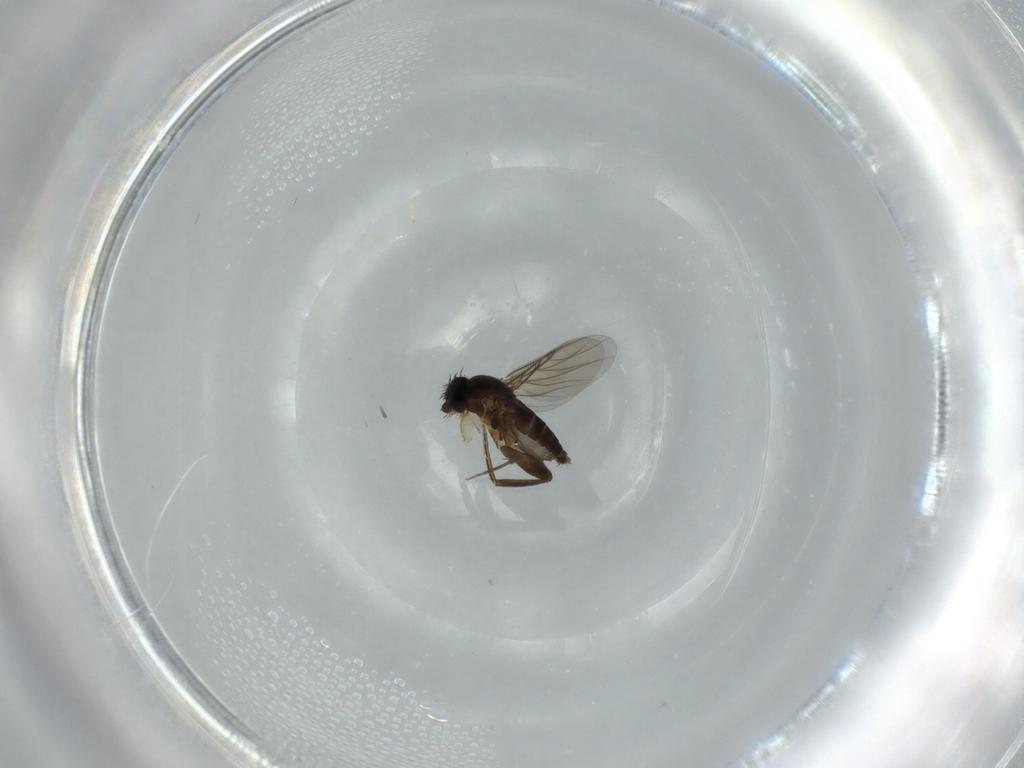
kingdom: Animalia
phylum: Arthropoda
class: Insecta
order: Diptera
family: Phoridae
